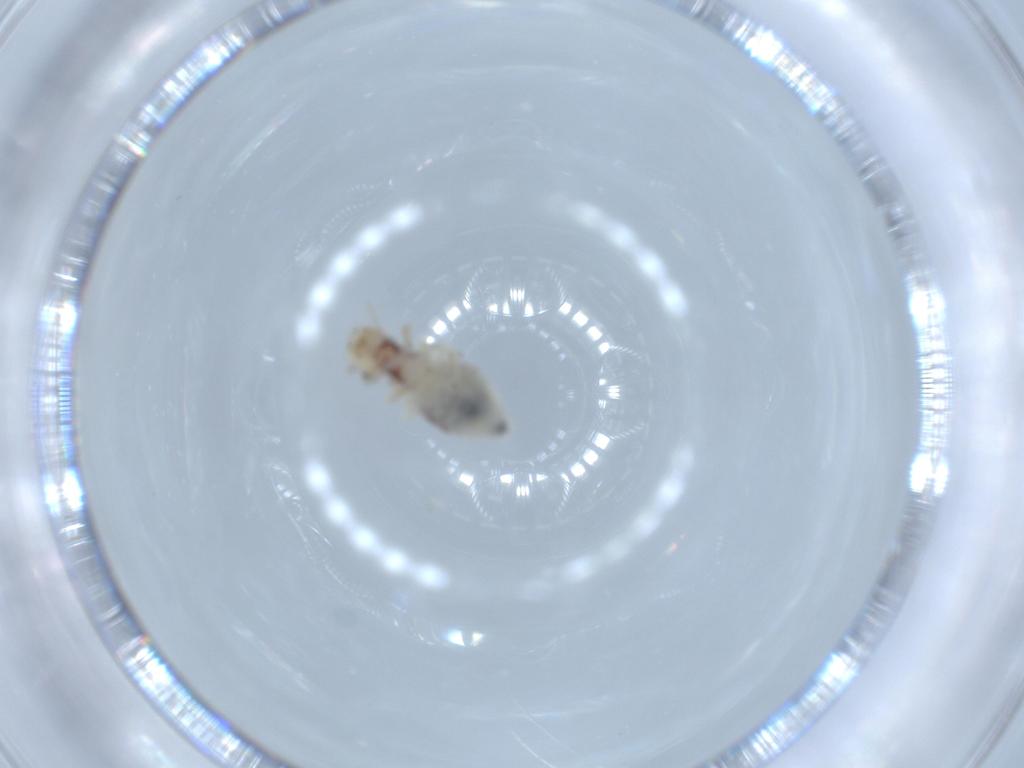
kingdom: Animalia
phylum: Arthropoda
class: Insecta
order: Psocodea
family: Caeciliusidae
